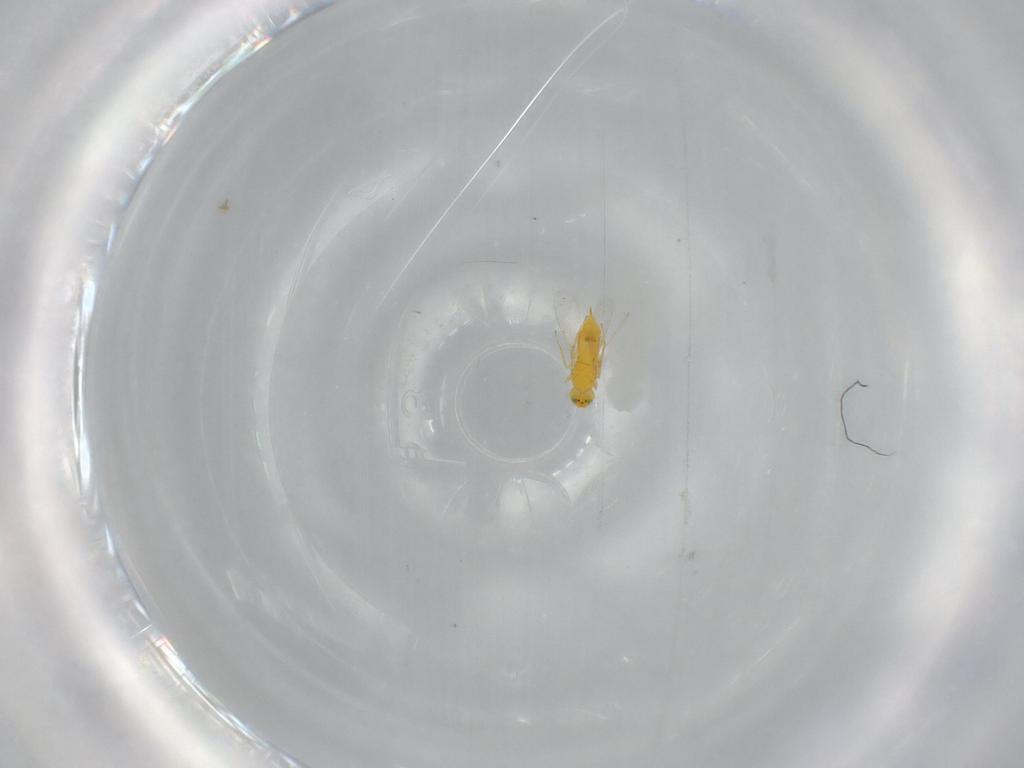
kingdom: Animalia
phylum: Arthropoda
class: Insecta
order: Hymenoptera
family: Aphelinidae
